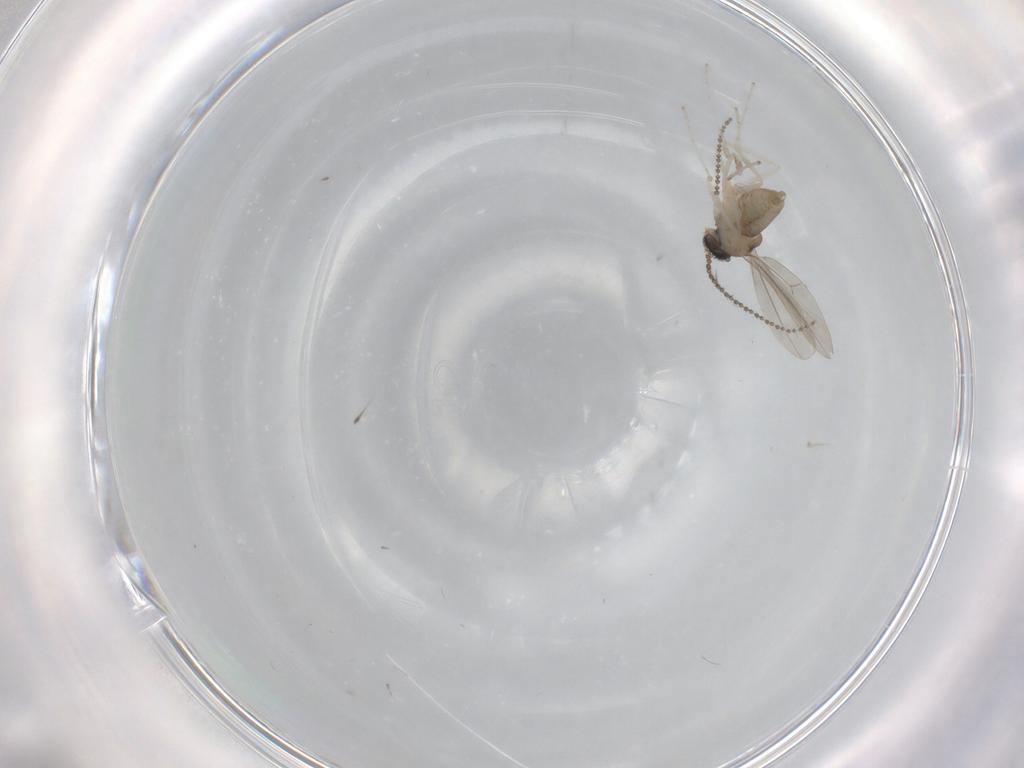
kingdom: Animalia
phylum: Arthropoda
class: Insecta
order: Diptera
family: Cecidomyiidae
